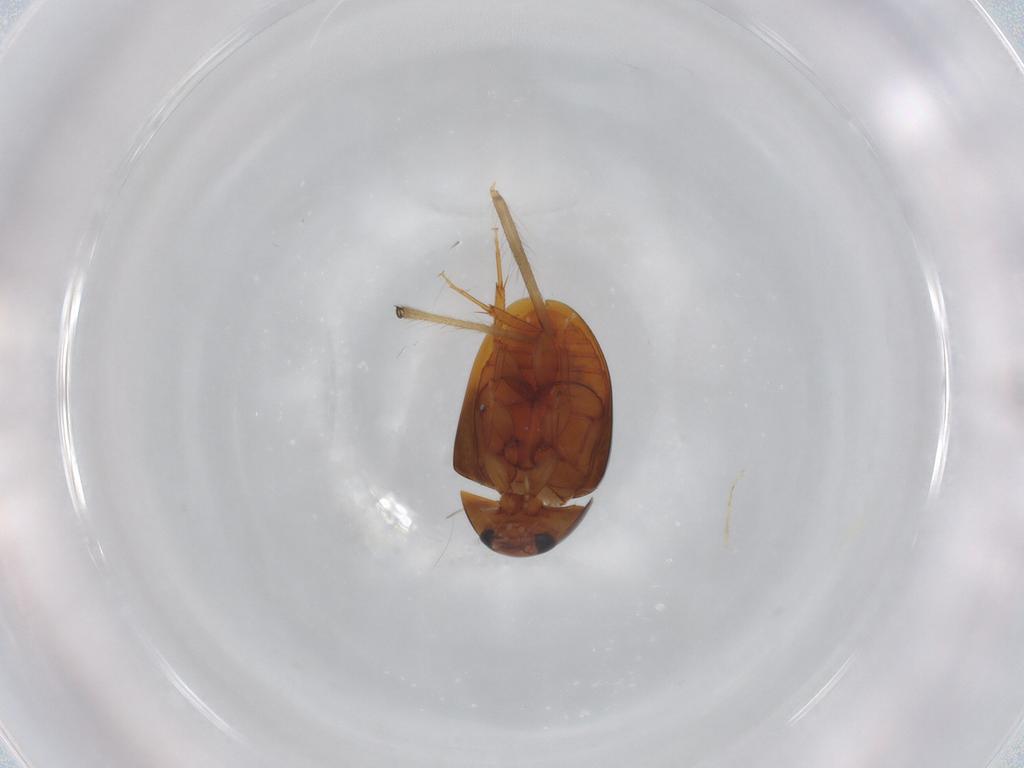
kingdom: Animalia
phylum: Arthropoda
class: Insecta
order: Coleoptera
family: Phalacridae
